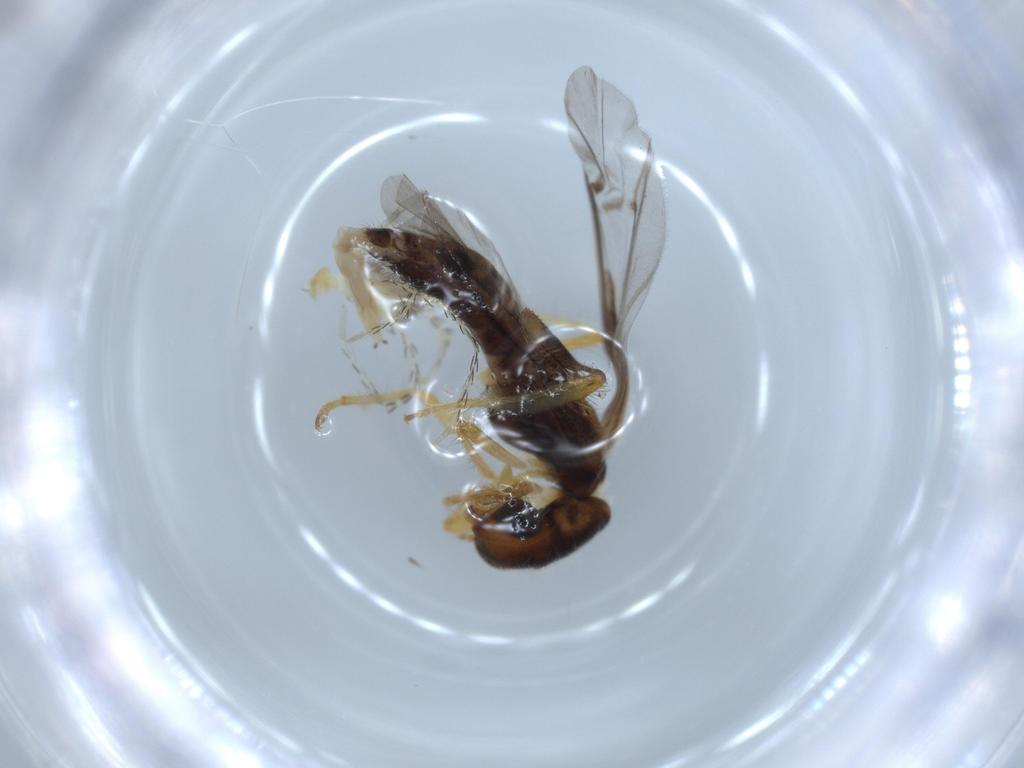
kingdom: Animalia
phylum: Arthropoda
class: Arachnida
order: Trombidiformes
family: Erythraeidae
